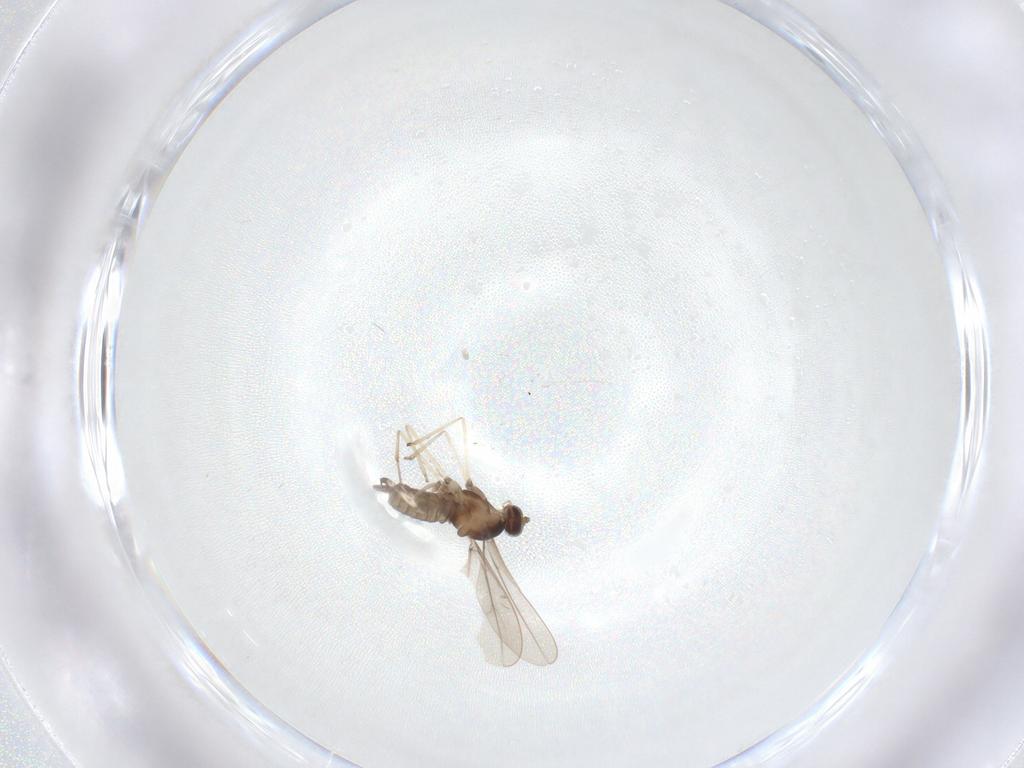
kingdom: Animalia
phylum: Arthropoda
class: Insecta
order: Diptera
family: Cecidomyiidae
